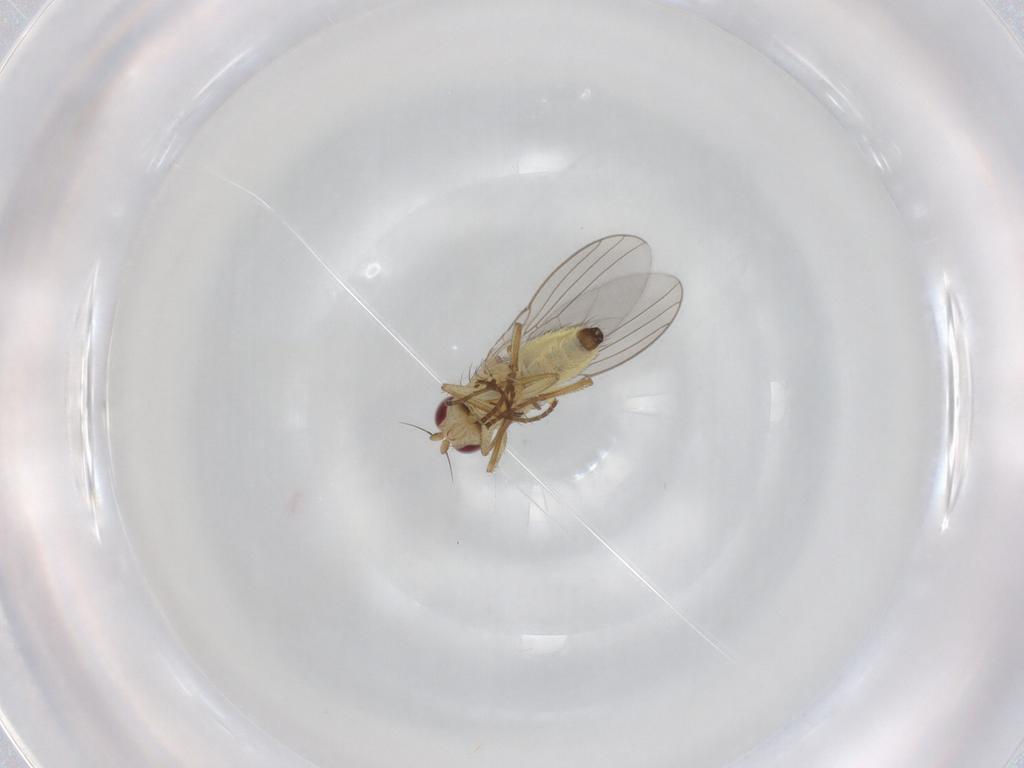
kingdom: Animalia
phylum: Arthropoda
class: Insecta
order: Diptera
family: Agromyzidae
